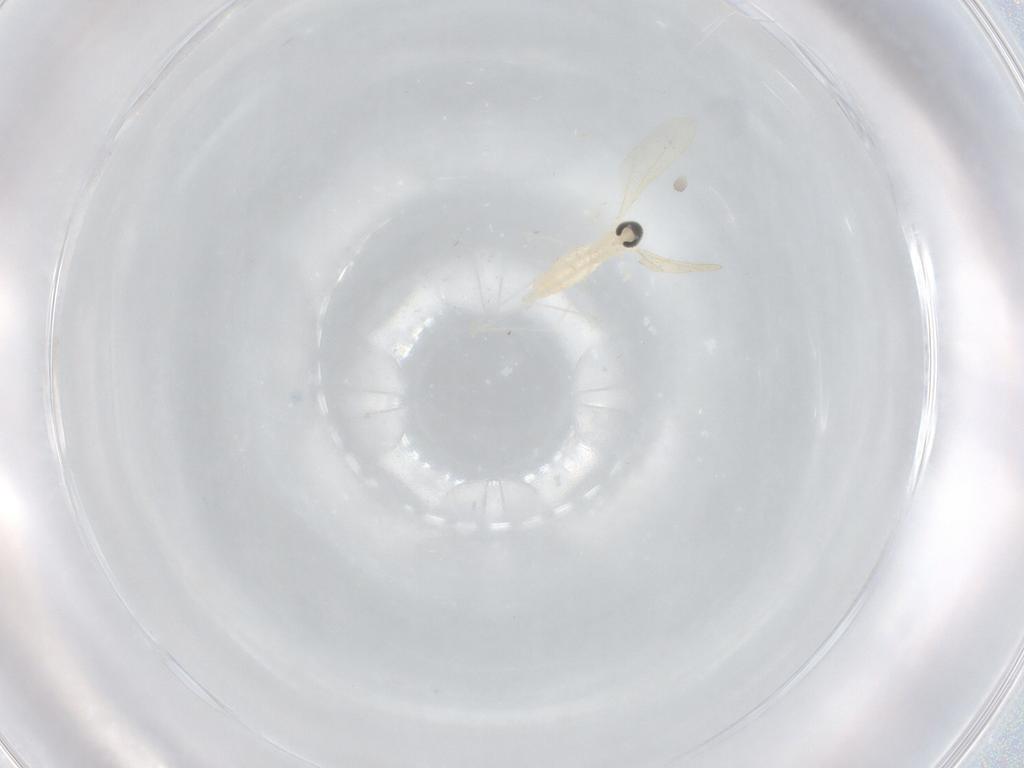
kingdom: Animalia
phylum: Arthropoda
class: Insecta
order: Diptera
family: Cecidomyiidae
